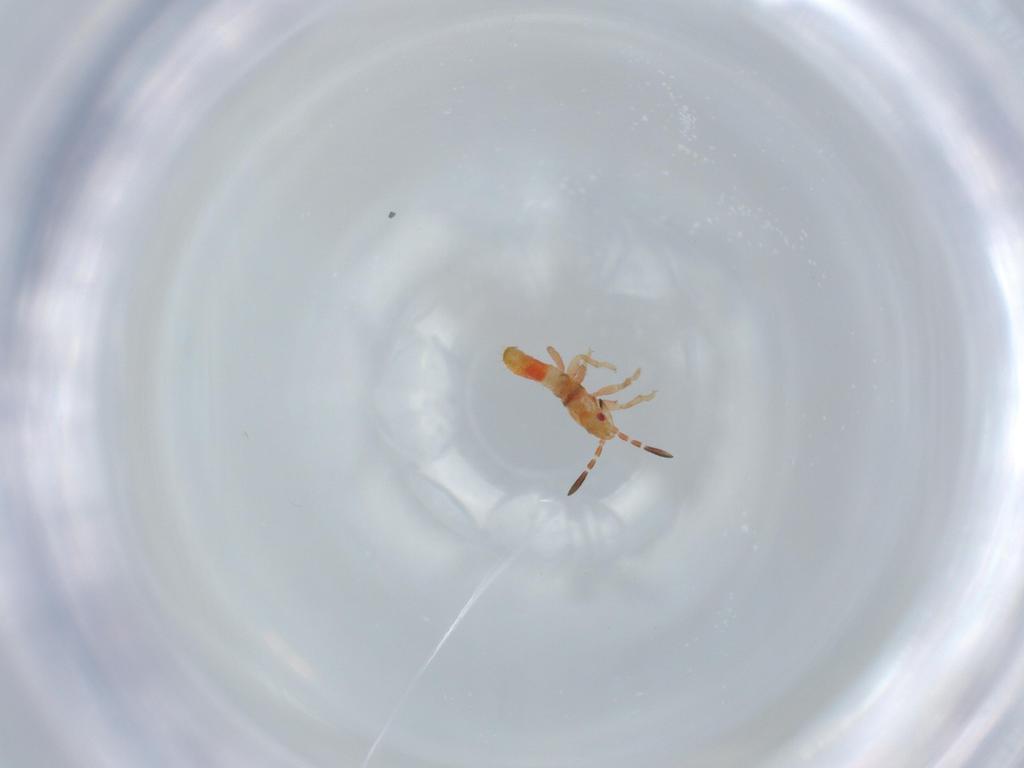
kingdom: Animalia
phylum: Arthropoda
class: Insecta
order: Hemiptera
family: Blissidae
